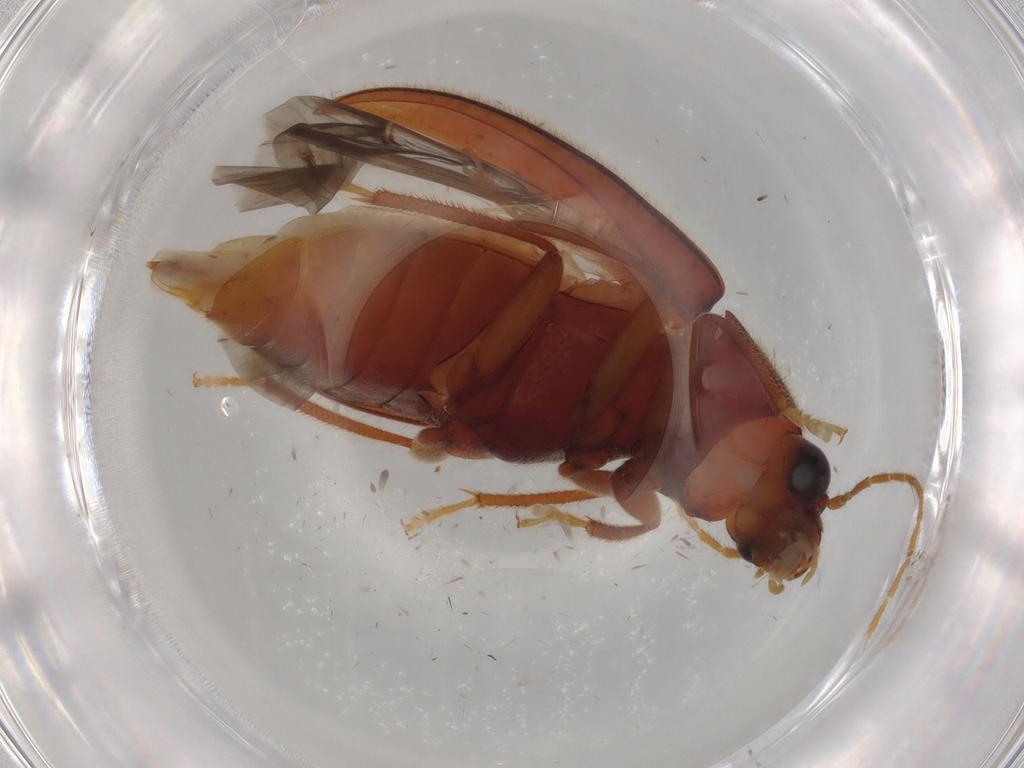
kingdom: Animalia
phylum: Arthropoda
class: Insecta
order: Coleoptera
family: Ptilodactylidae
